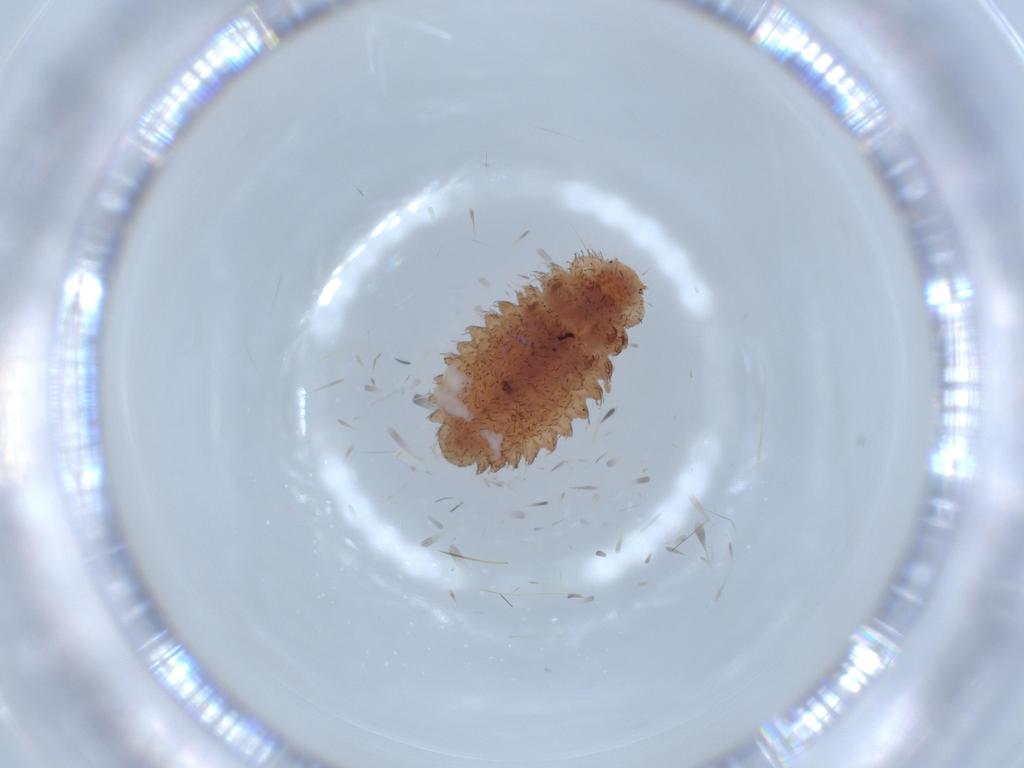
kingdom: Animalia
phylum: Arthropoda
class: Insecta
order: Coleoptera
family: Coccinellidae
